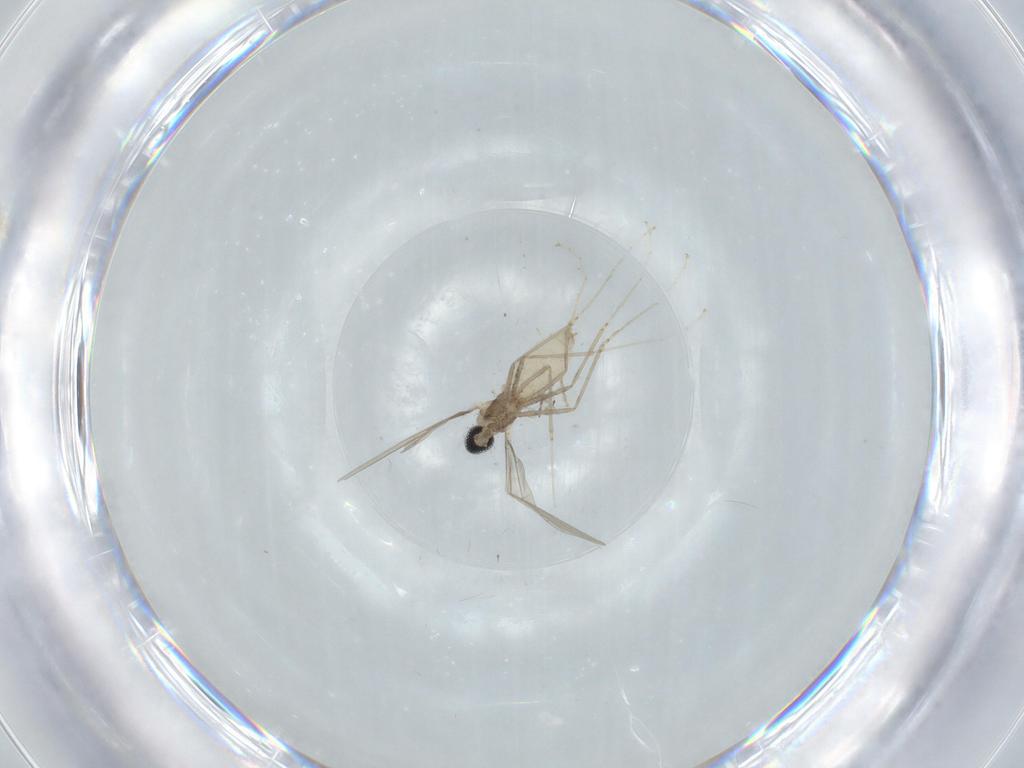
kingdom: Animalia
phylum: Arthropoda
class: Insecta
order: Diptera
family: Cecidomyiidae
